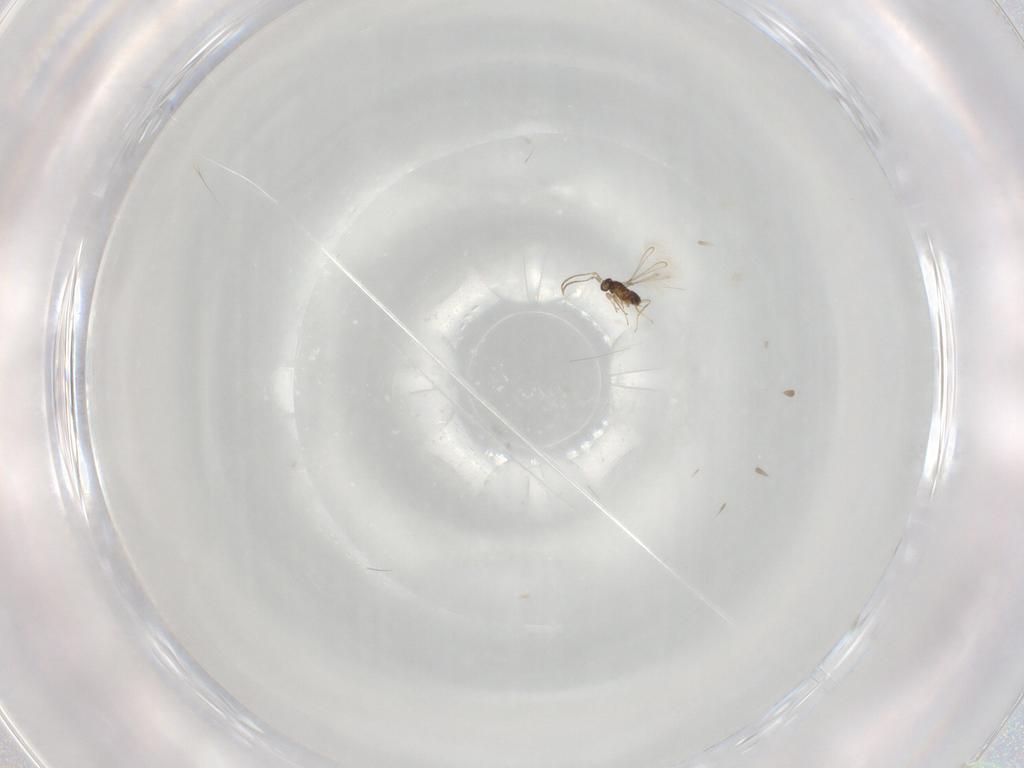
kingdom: Animalia
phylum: Arthropoda
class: Insecta
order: Hymenoptera
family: Mymaridae
